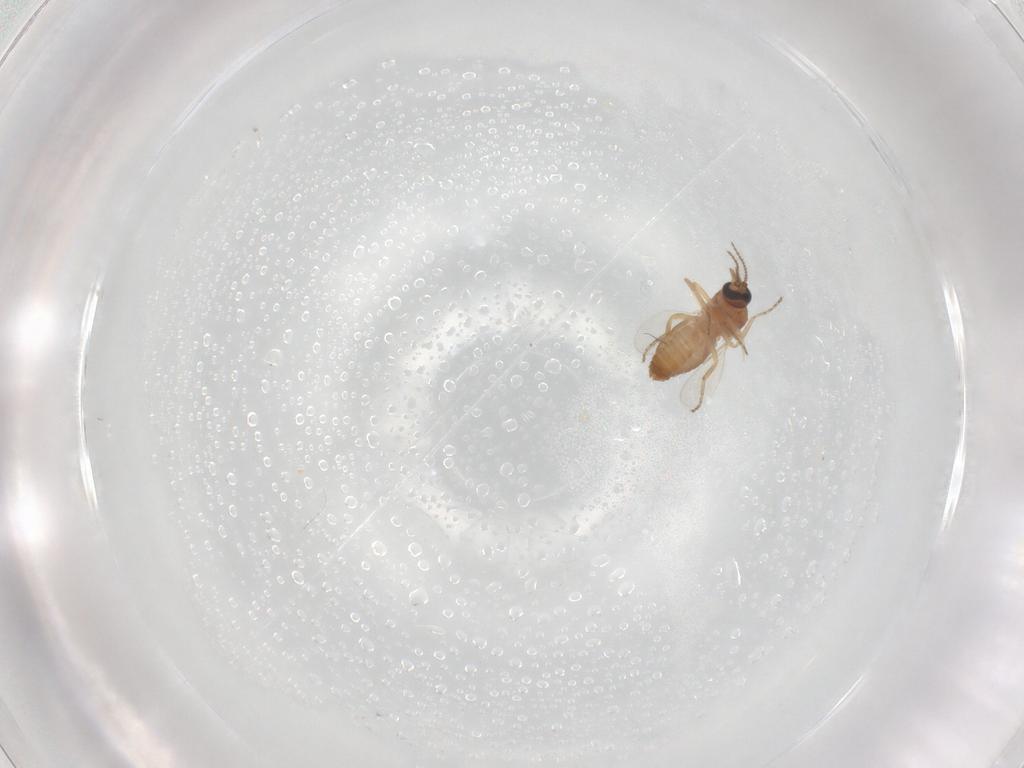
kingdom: Animalia
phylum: Arthropoda
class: Insecta
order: Diptera
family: Ceratopogonidae
